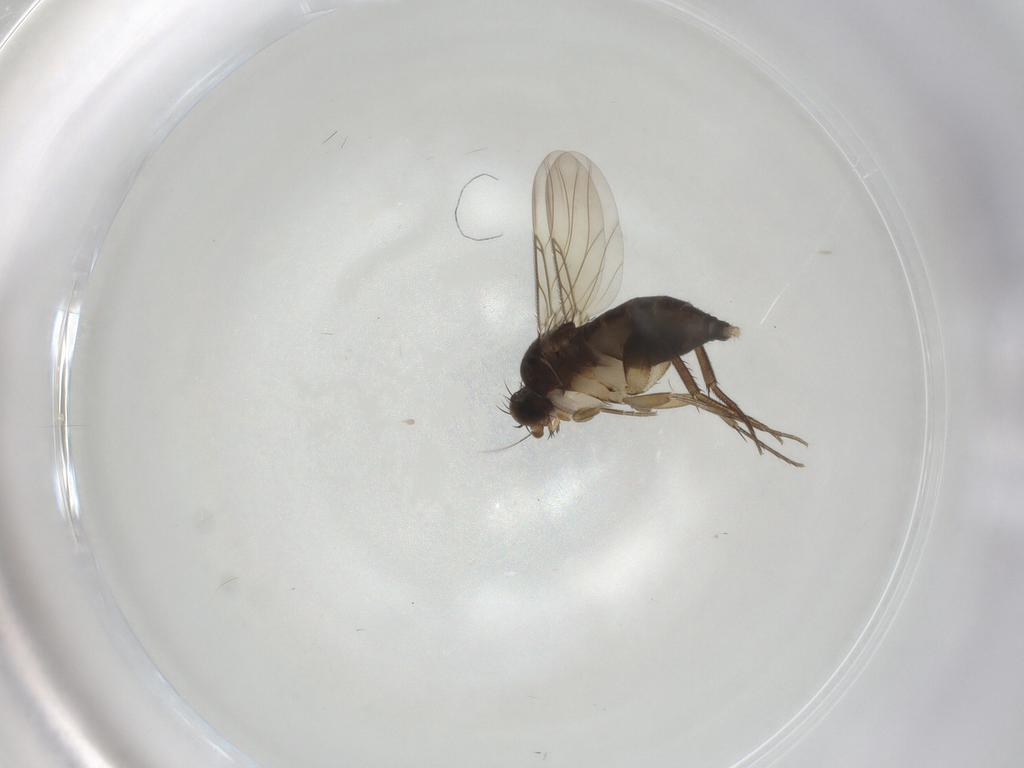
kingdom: Animalia
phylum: Arthropoda
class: Insecta
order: Diptera
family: Phoridae
